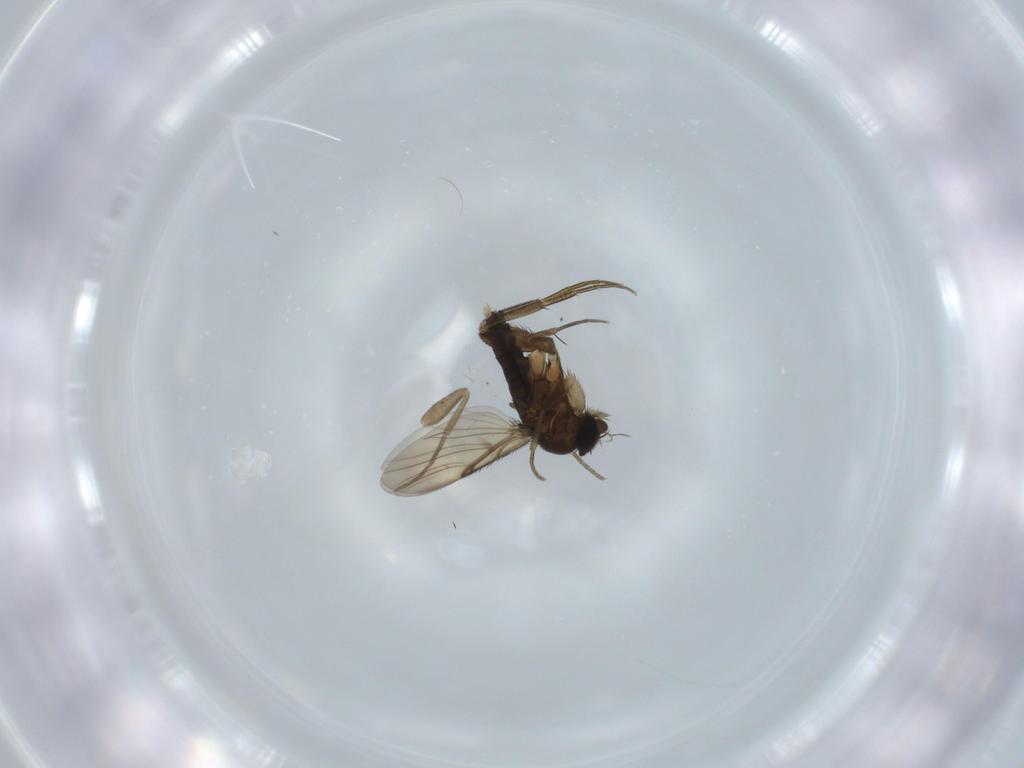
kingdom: Animalia
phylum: Arthropoda
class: Insecta
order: Diptera
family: Phoridae
